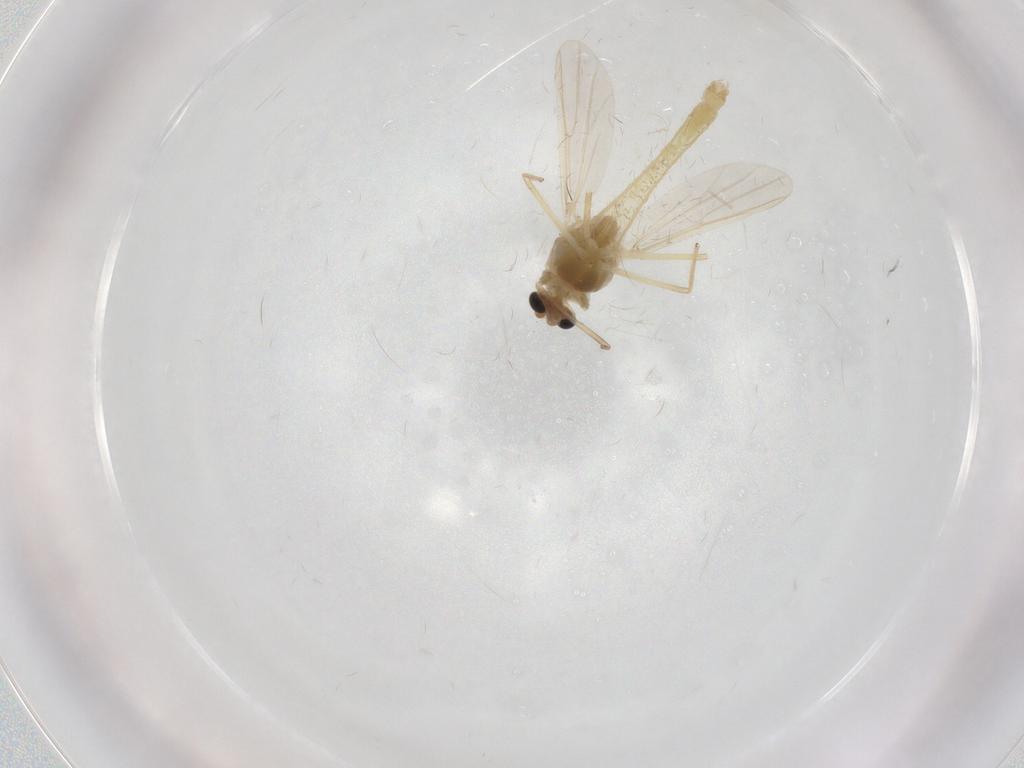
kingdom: Animalia
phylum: Arthropoda
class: Insecta
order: Diptera
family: Chironomidae
